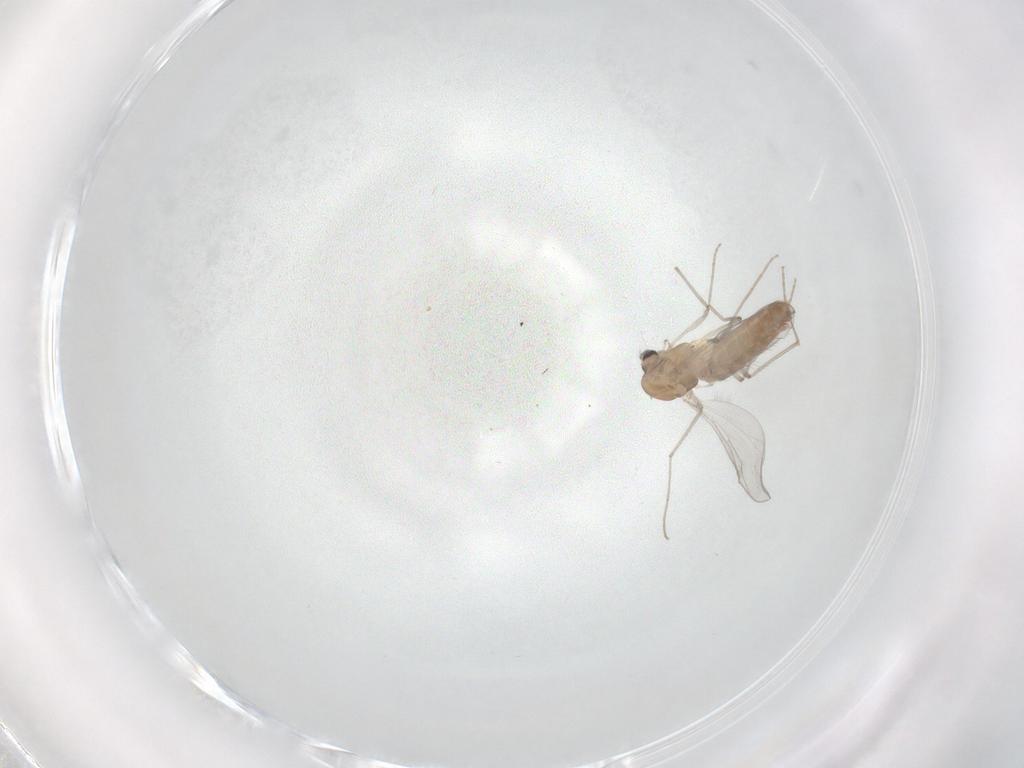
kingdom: Animalia
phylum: Arthropoda
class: Insecta
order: Diptera
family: Chironomidae
